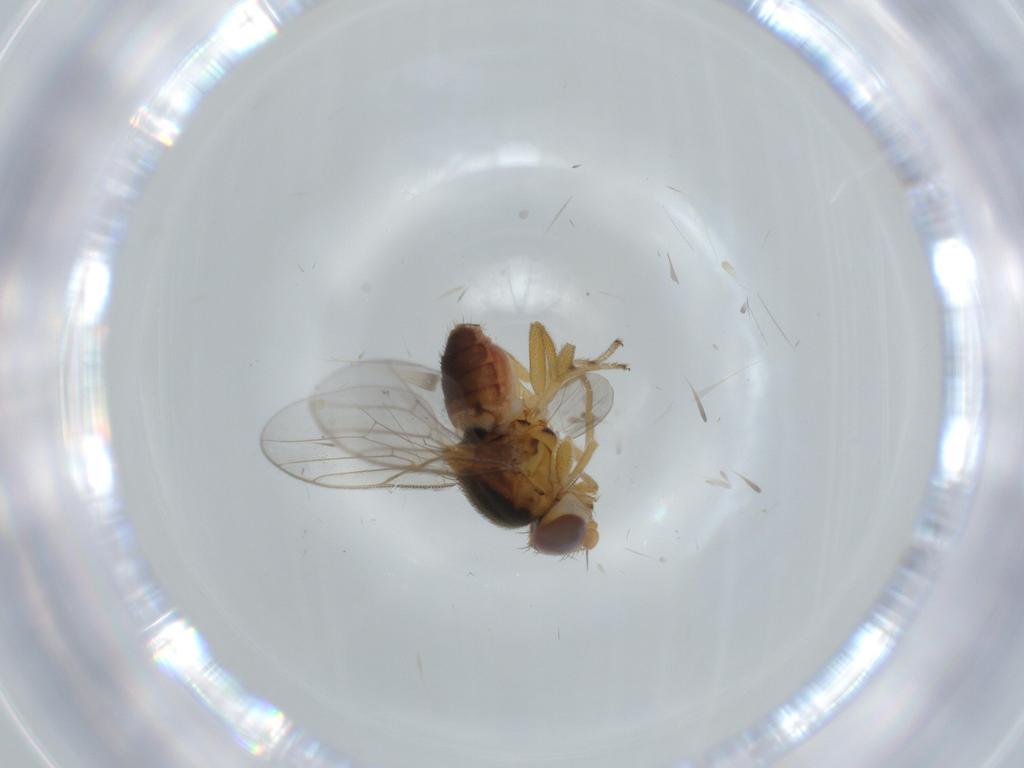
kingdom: Animalia
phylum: Arthropoda
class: Insecta
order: Diptera
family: Chloropidae
